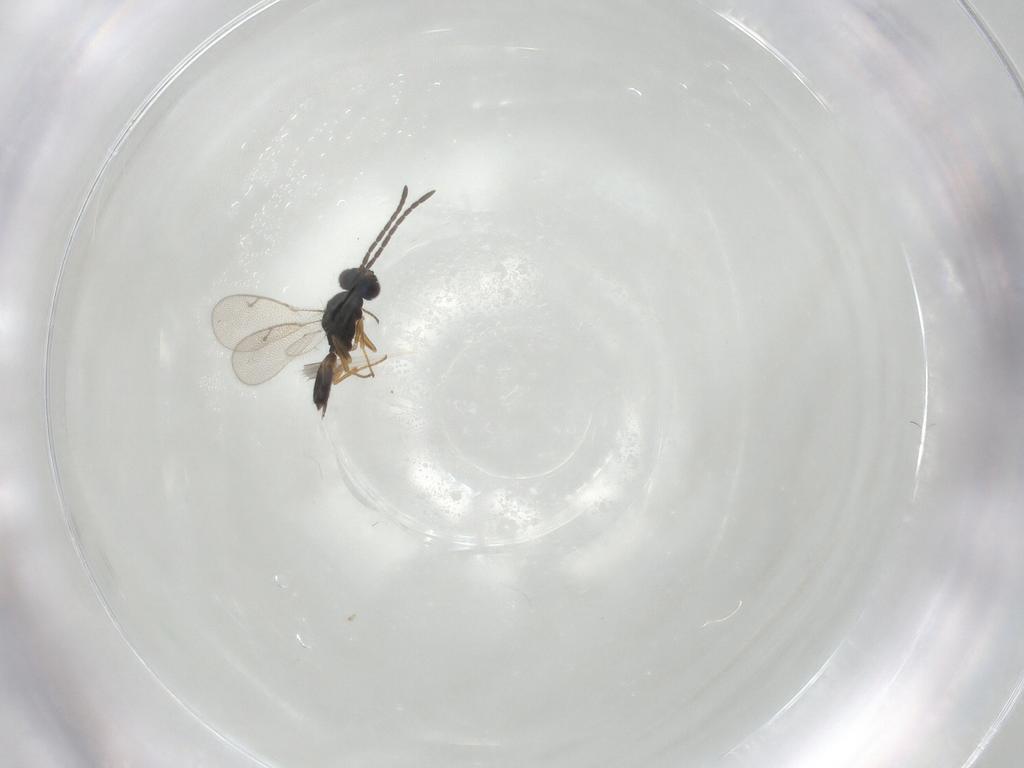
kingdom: Animalia
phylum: Arthropoda
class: Insecta
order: Hymenoptera
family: Eupelmidae
